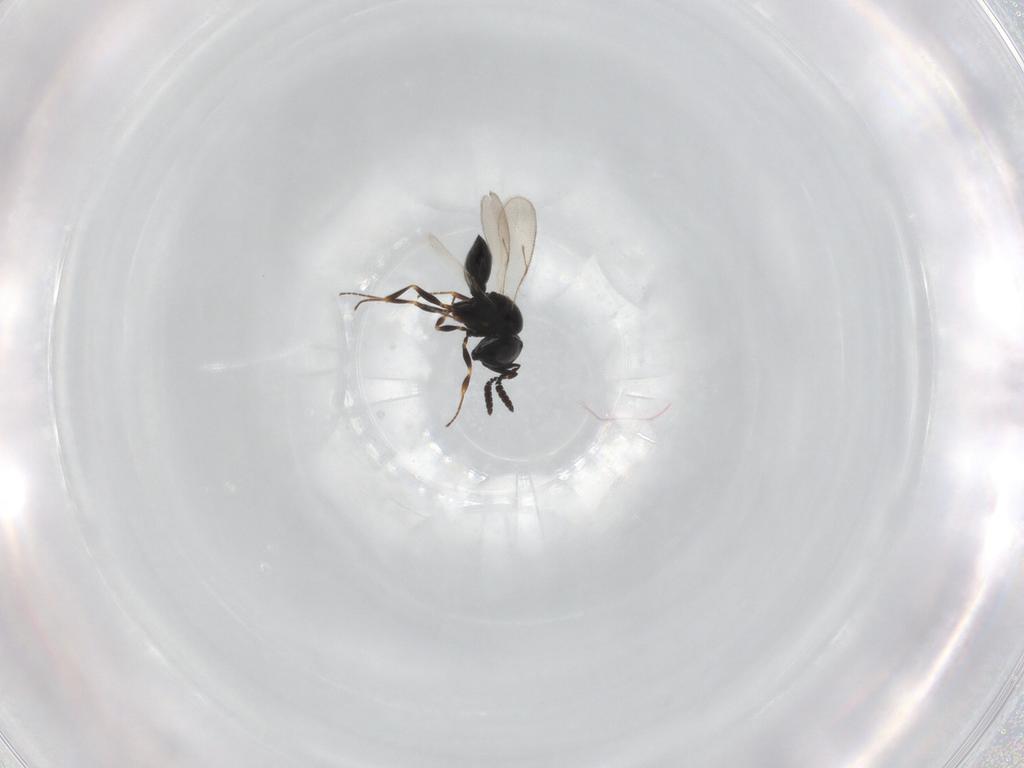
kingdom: Animalia
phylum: Arthropoda
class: Insecta
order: Hymenoptera
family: Scelionidae
